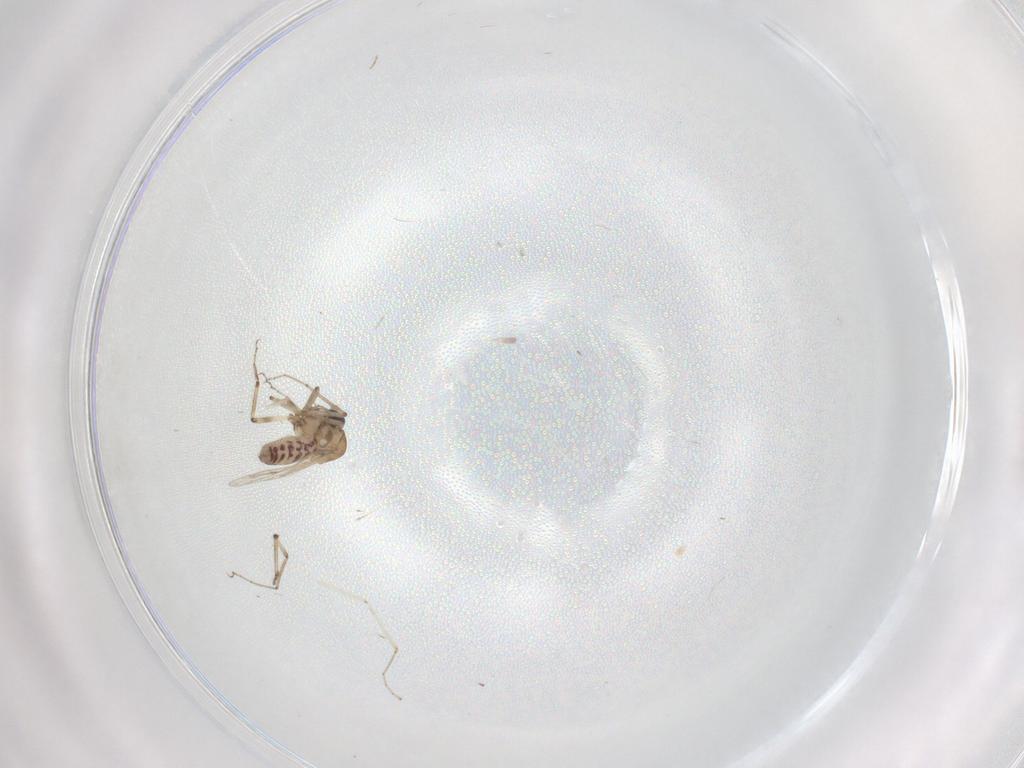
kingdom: Animalia
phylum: Arthropoda
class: Insecta
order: Diptera
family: Ceratopogonidae
